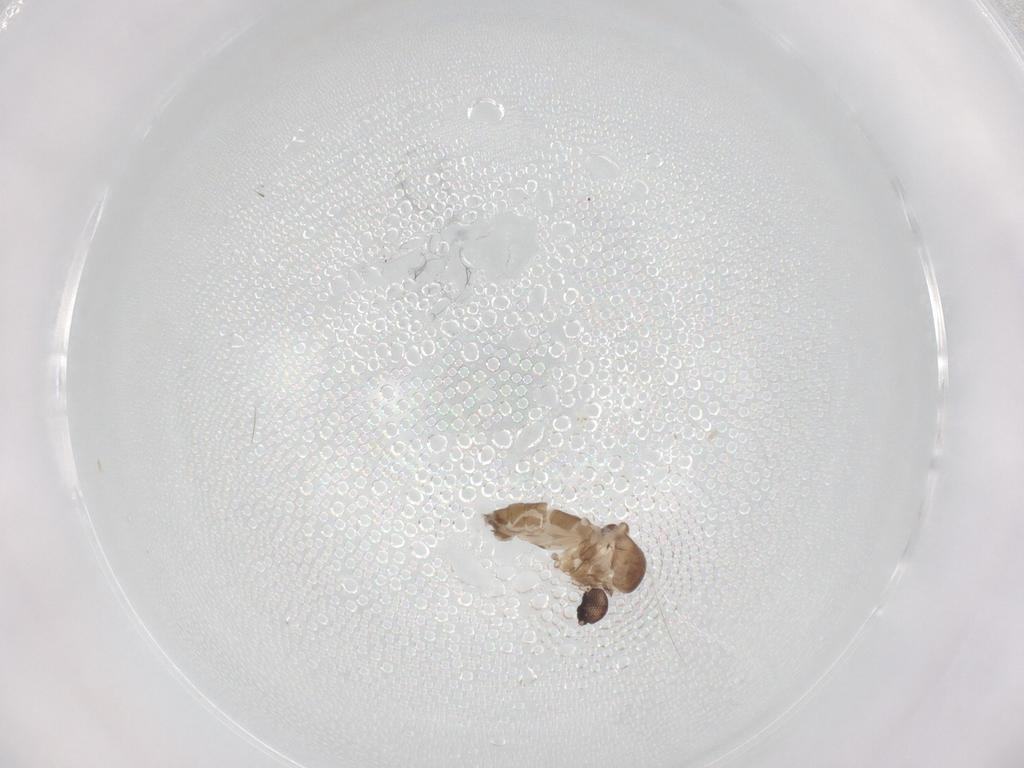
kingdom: Animalia
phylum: Arthropoda
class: Insecta
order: Diptera
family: Ceratopogonidae
